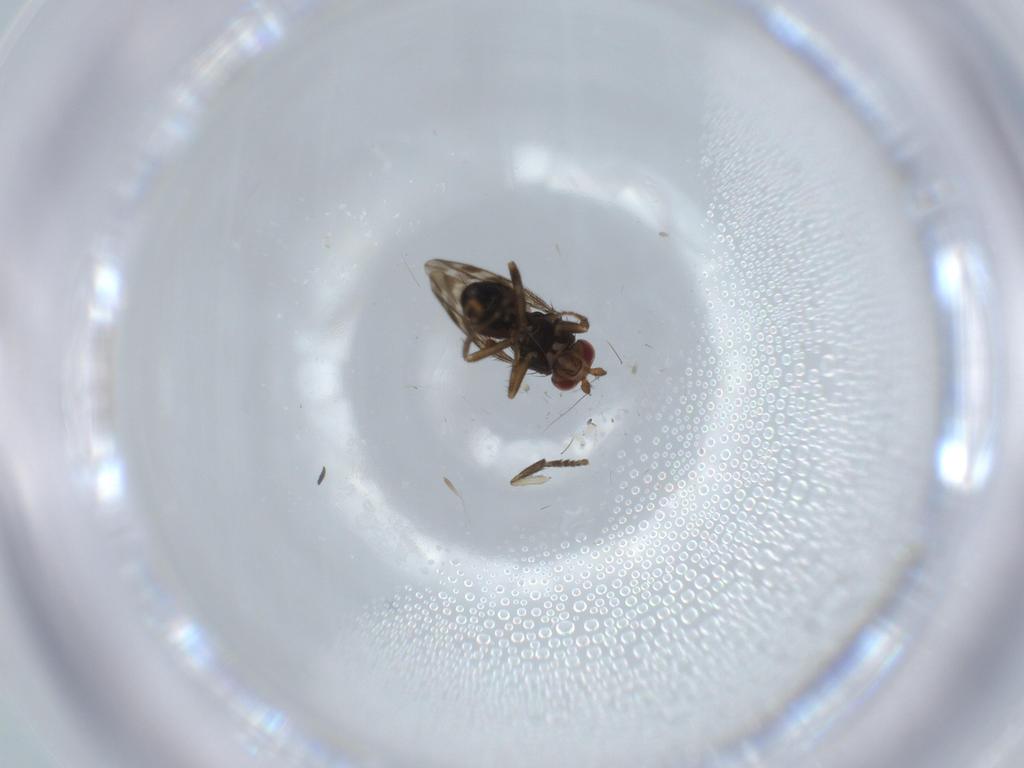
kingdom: Animalia
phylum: Arthropoda
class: Insecta
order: Diptera
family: Sphaeroceridae
